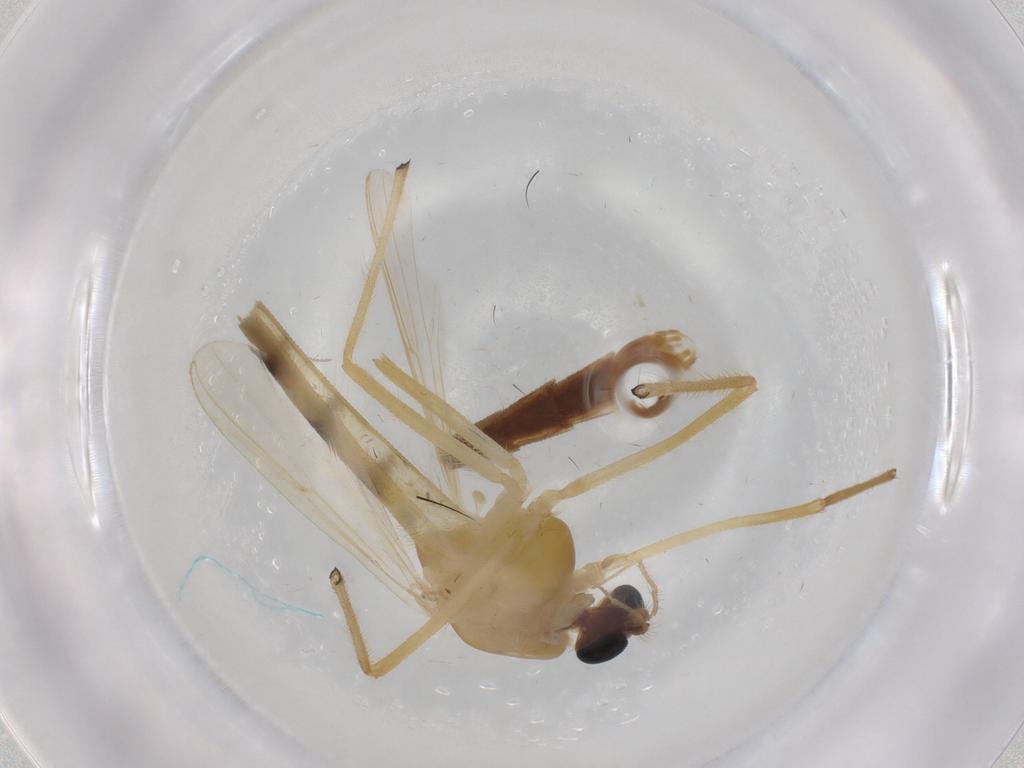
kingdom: Animalia
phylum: Arthropoda
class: Insecta
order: Diptera
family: Chironomidae
